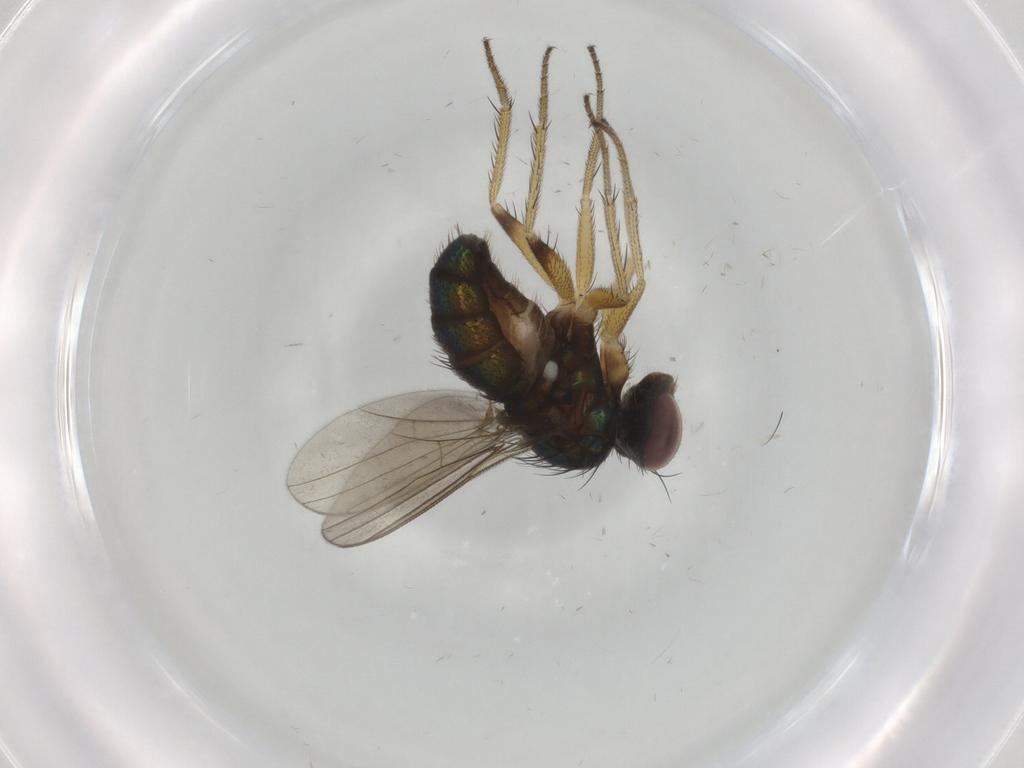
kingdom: Animalia
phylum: Arthropoda
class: Insecta
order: Diptera
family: Dolichopodidae
